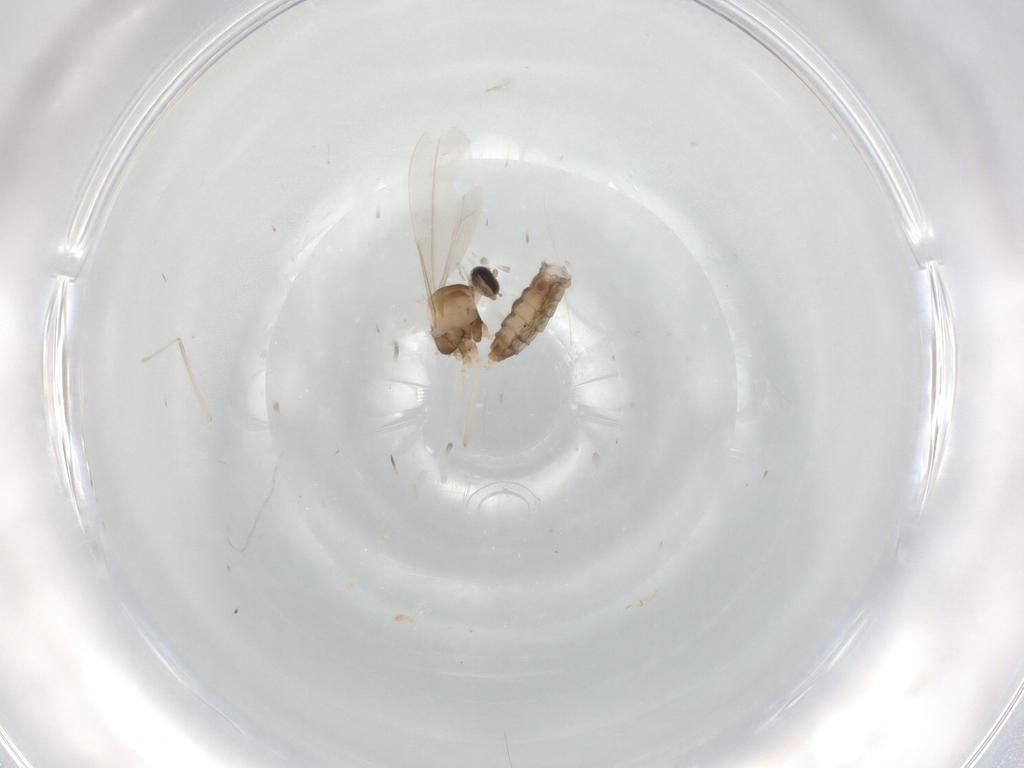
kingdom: Animalia
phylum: Arthropoda
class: Insecta
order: Diptera
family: Cecidomyiidae
